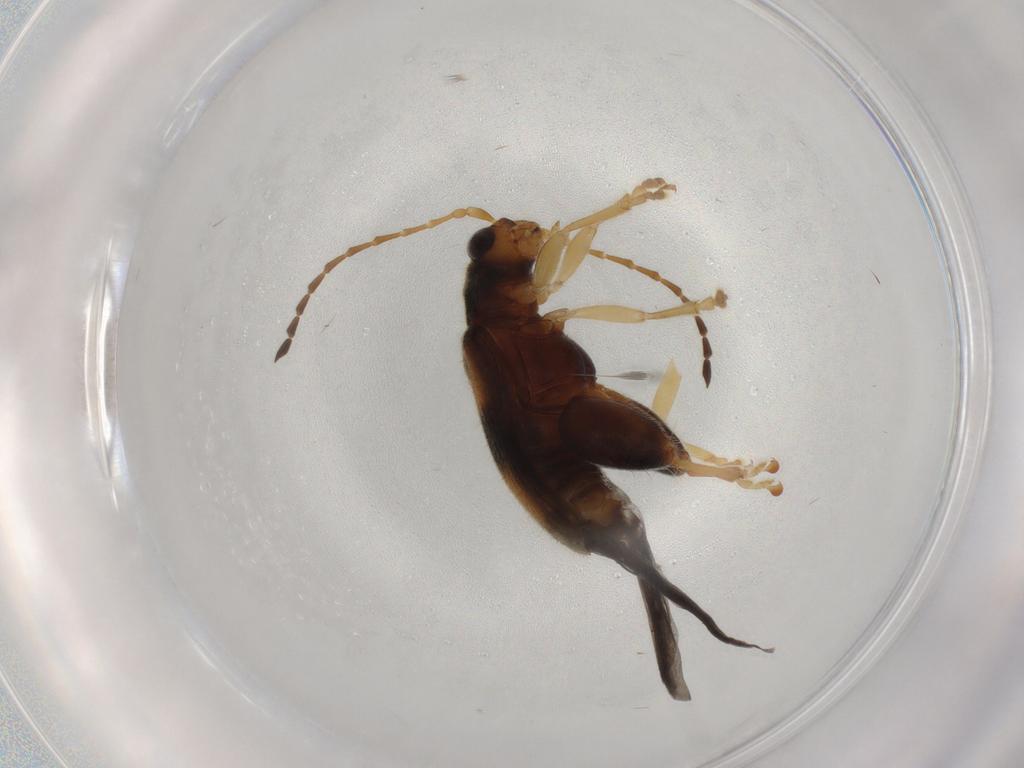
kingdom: Animalia
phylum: Arthropoda
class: Insecta
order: Coleoptera
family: Chrysomelidae
